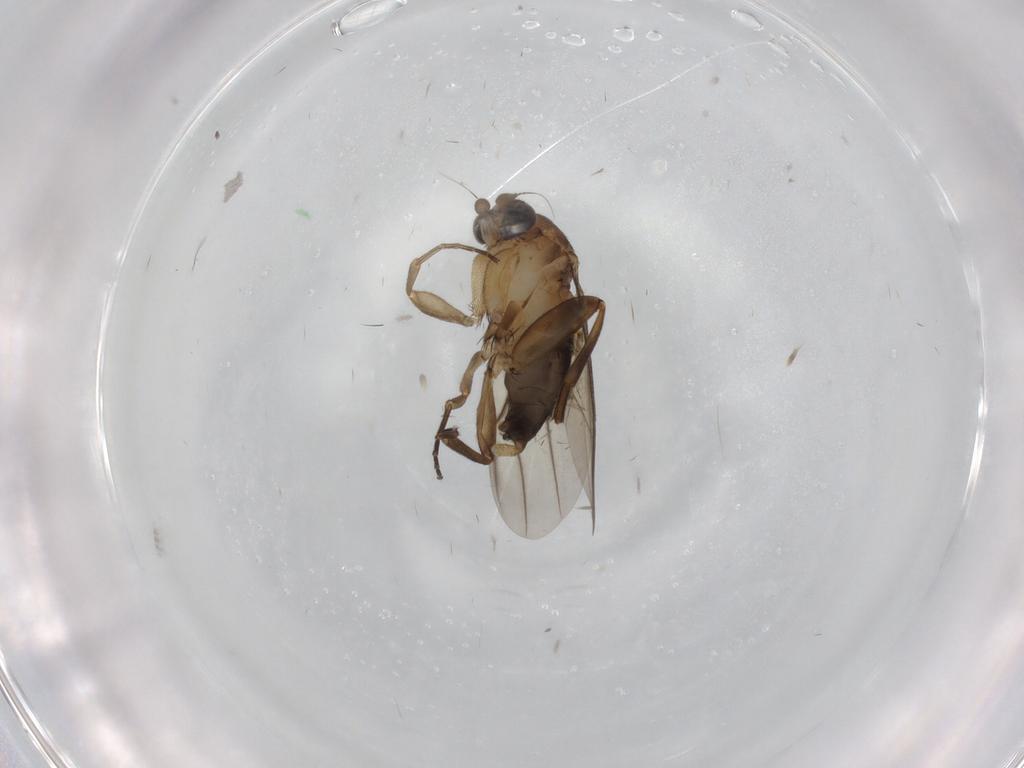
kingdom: Animalia
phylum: Arthropoda
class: Insecta
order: Diptera
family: Phoridae
